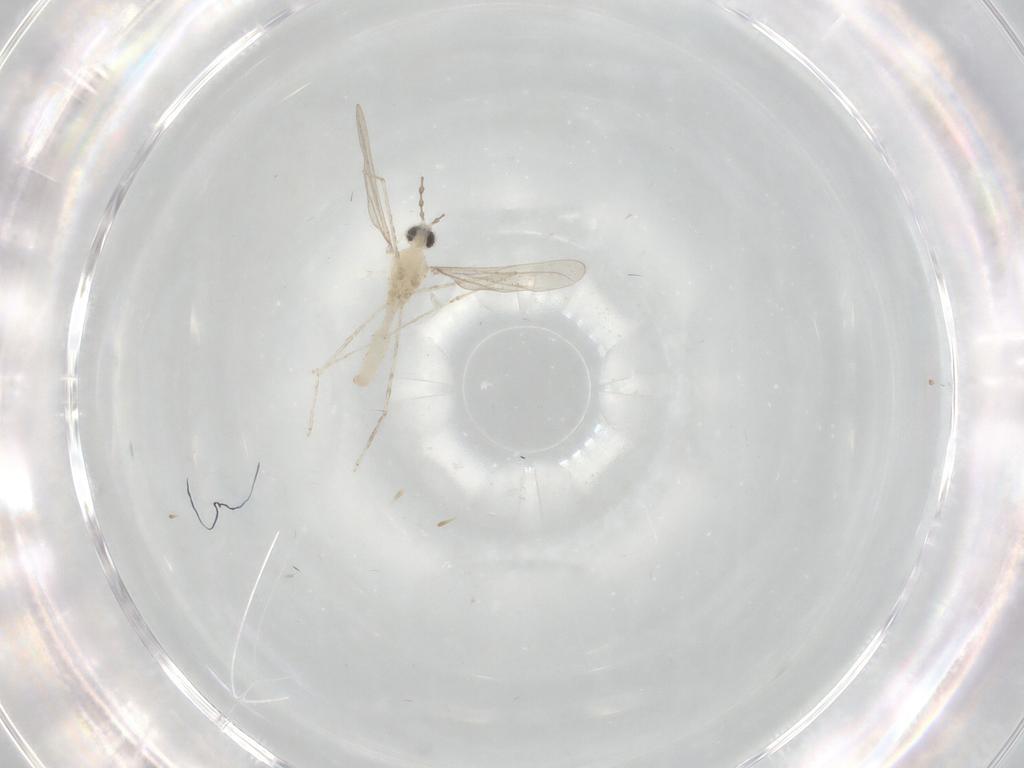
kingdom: Animalia
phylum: Arthropoda
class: Insecta
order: Diptera
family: Cecidomyiidae
